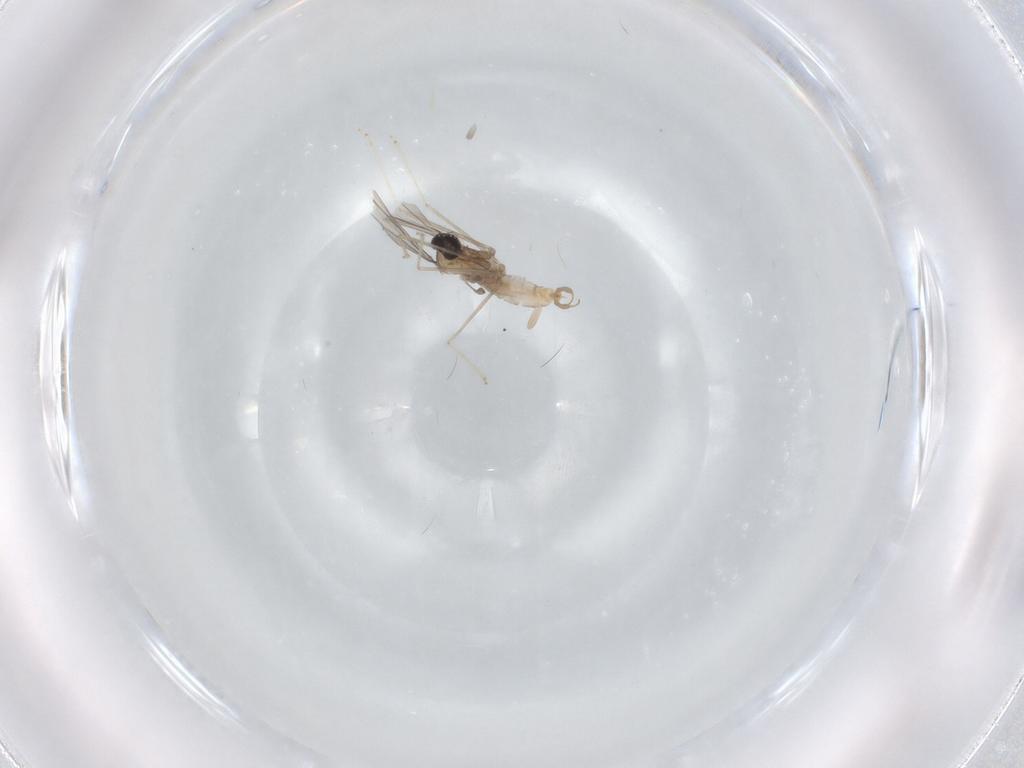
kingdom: Animalia
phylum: Arthropoda
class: Insecta
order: Diptera
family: Cecidomyiidae
